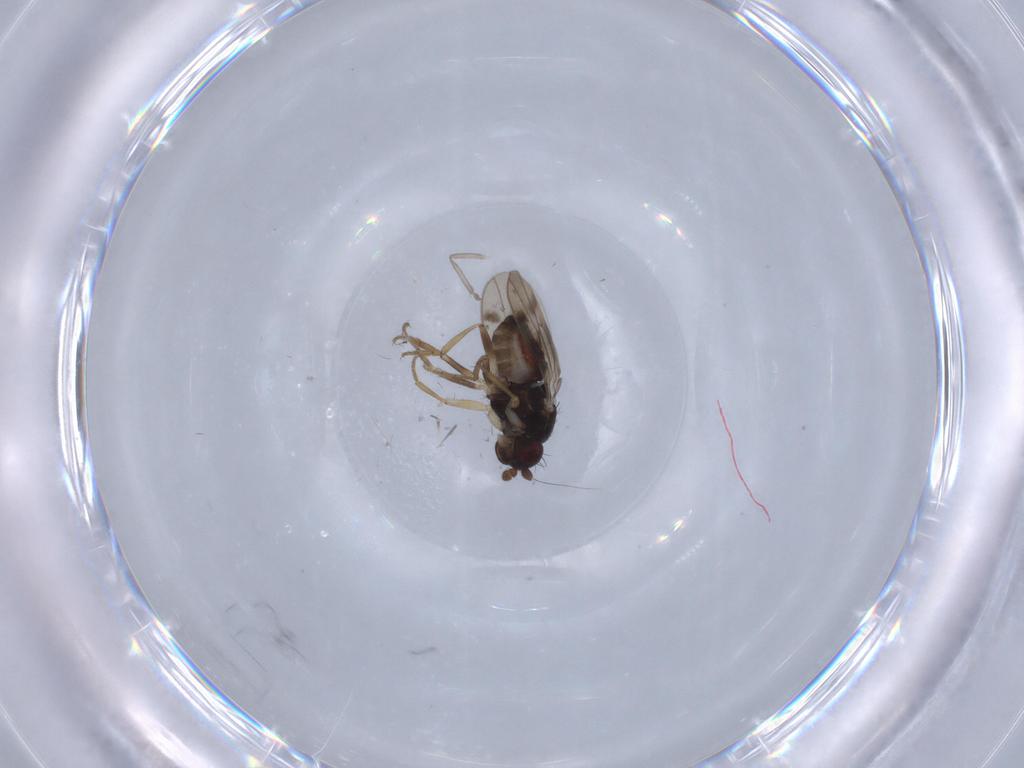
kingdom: Animalia
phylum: Arthropoda
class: Insecta
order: Diptera
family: Sphaeroceridae
